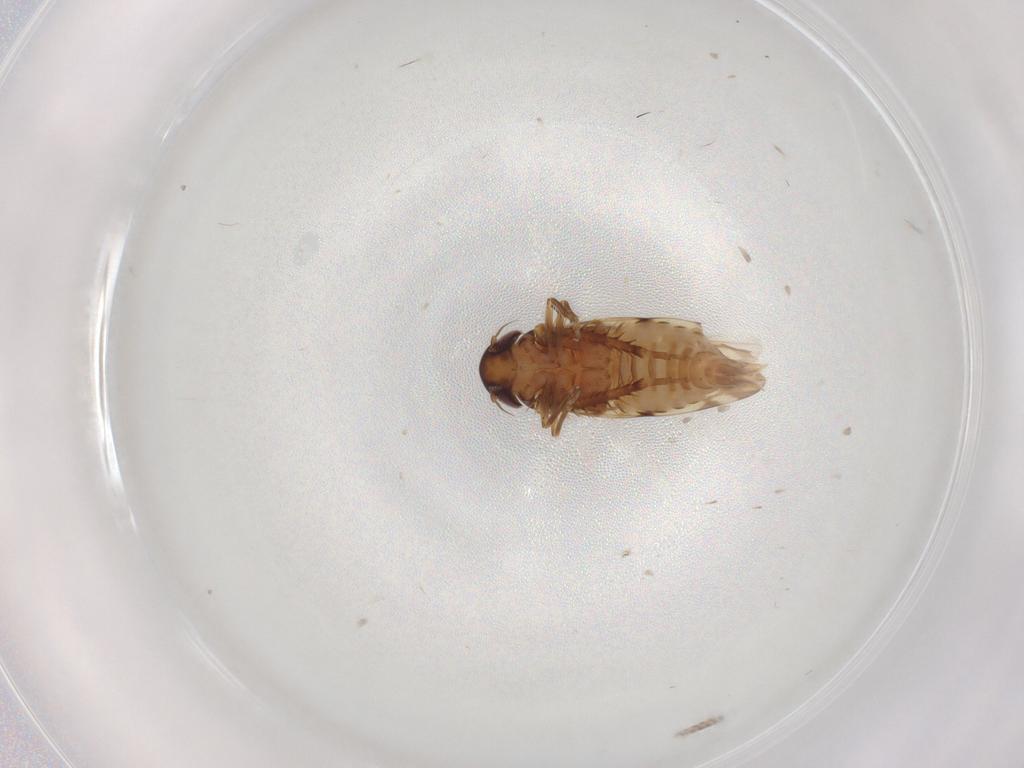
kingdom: Animalia
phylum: Arthropoda
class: Insecta
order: Hemiptera
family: Cicadellidae
